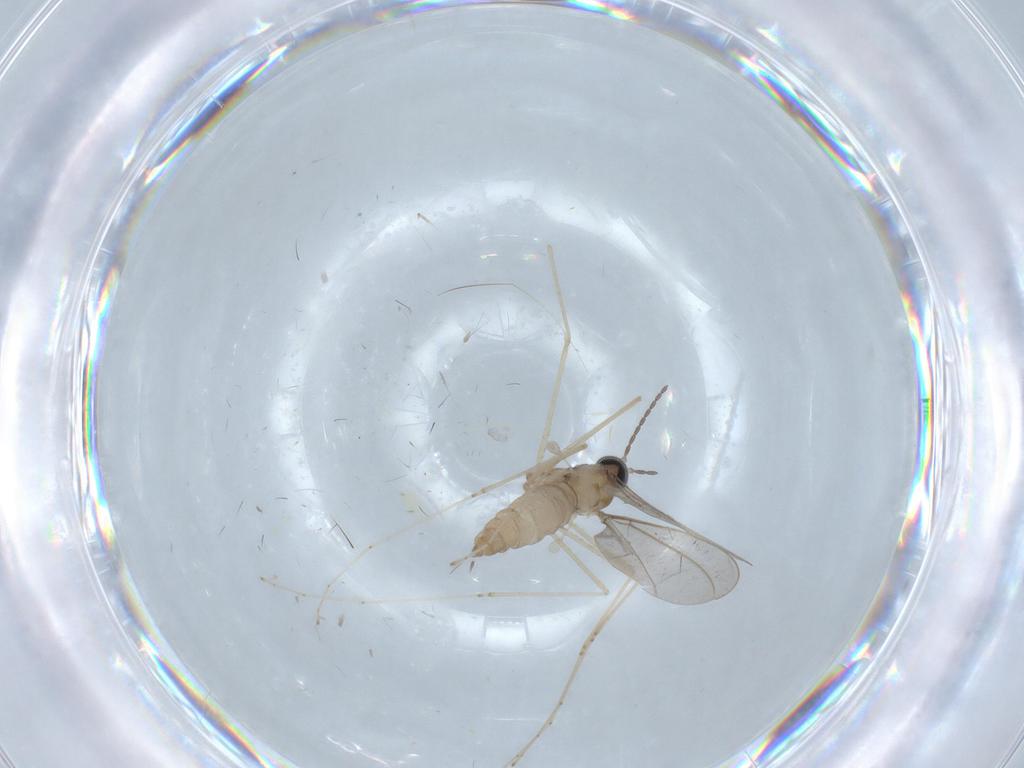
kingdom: Animalia
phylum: Arthropoda
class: Insecta
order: Diptera
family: Cecidomyiidae
